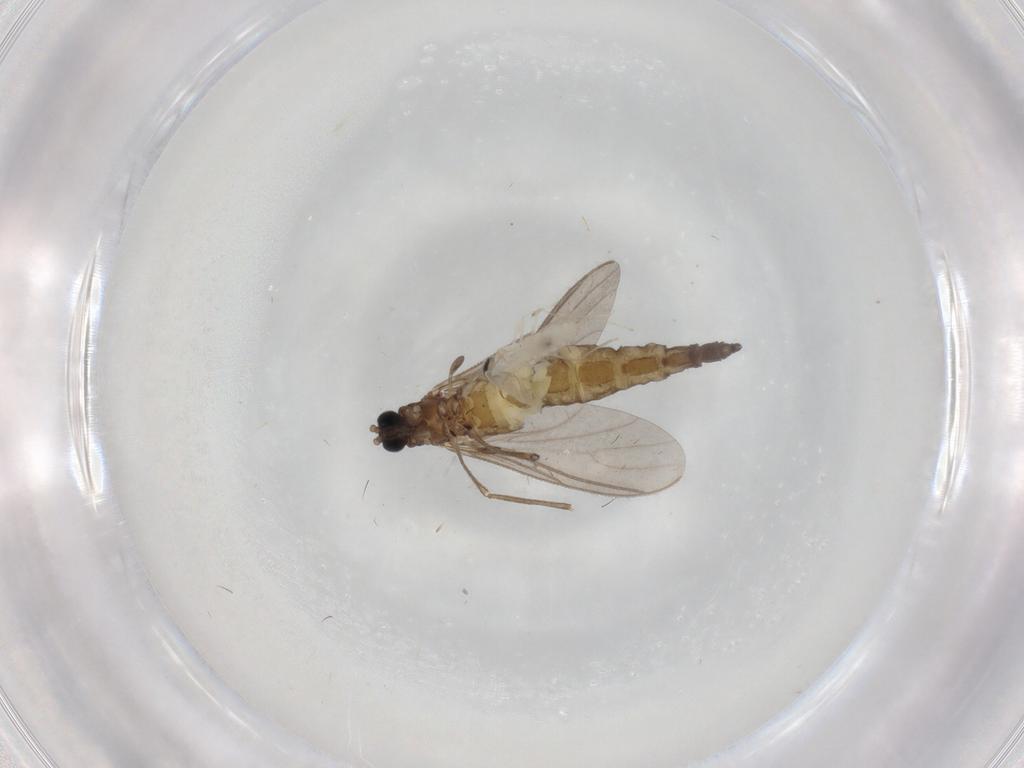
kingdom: Animalia
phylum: Arthropoda
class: Insecta
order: Diptera
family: Sciaridae
